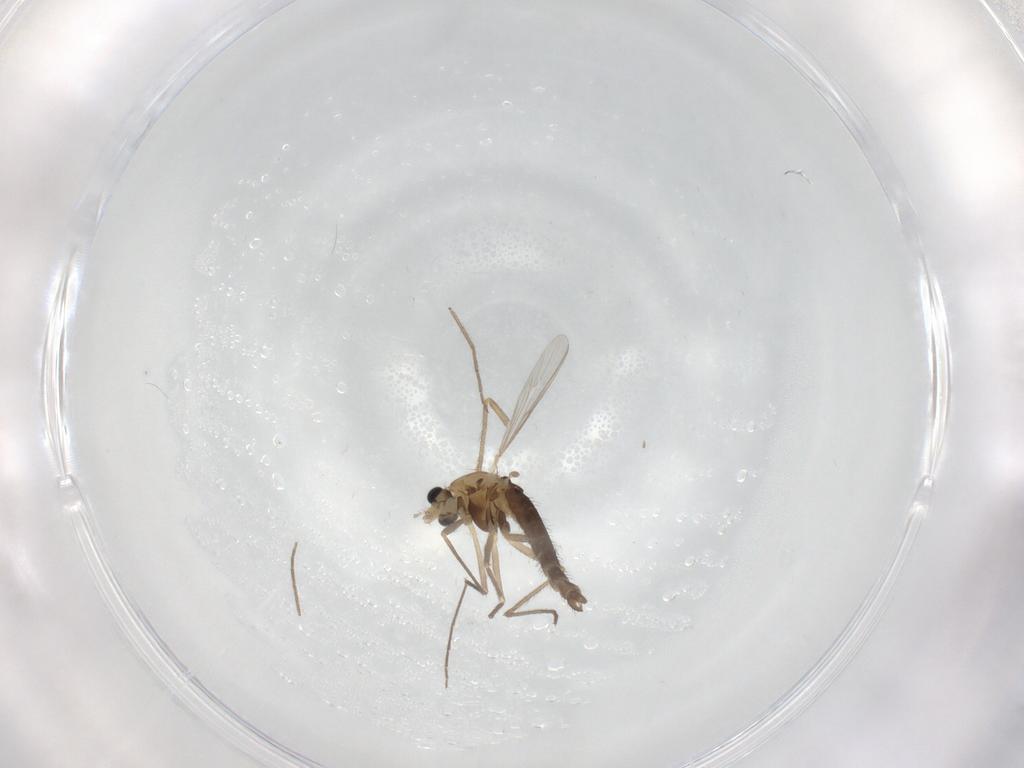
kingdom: Animalia
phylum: Arthropoda
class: Insecta
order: Diptera
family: Chironomidae
